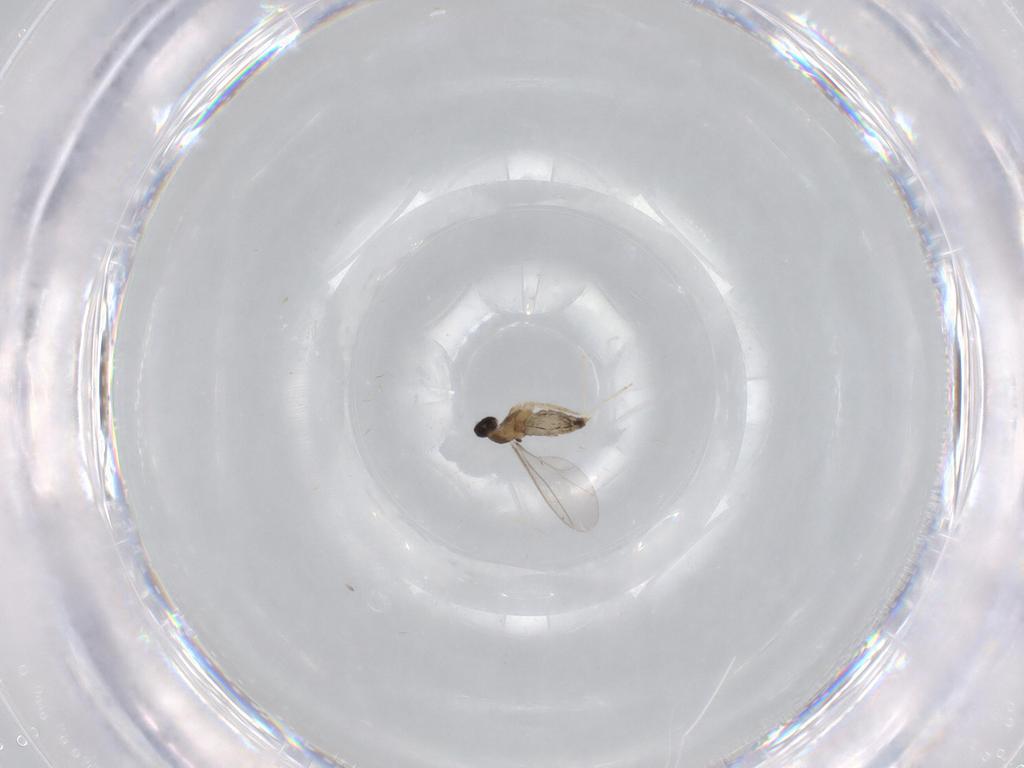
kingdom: Animalia
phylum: Arthropoda
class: Insecta
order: Diptera
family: Cecidomyiidae
